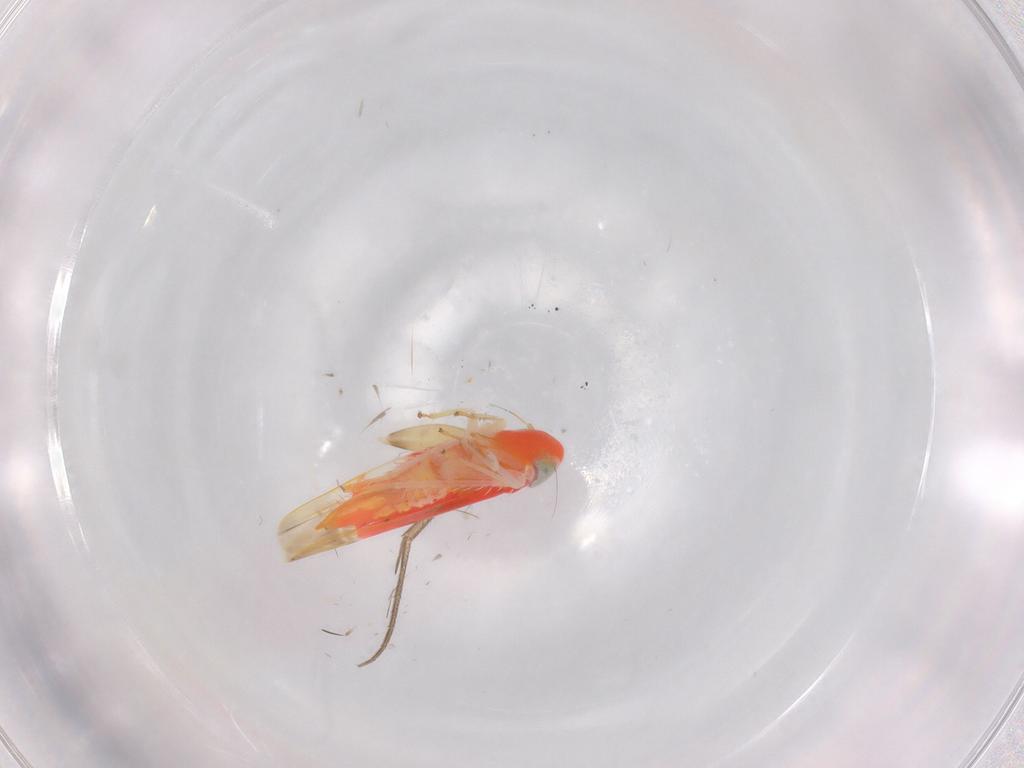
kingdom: Animalia
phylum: Arthropoda
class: Insecta
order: Hemiptera
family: Cicadellidae
